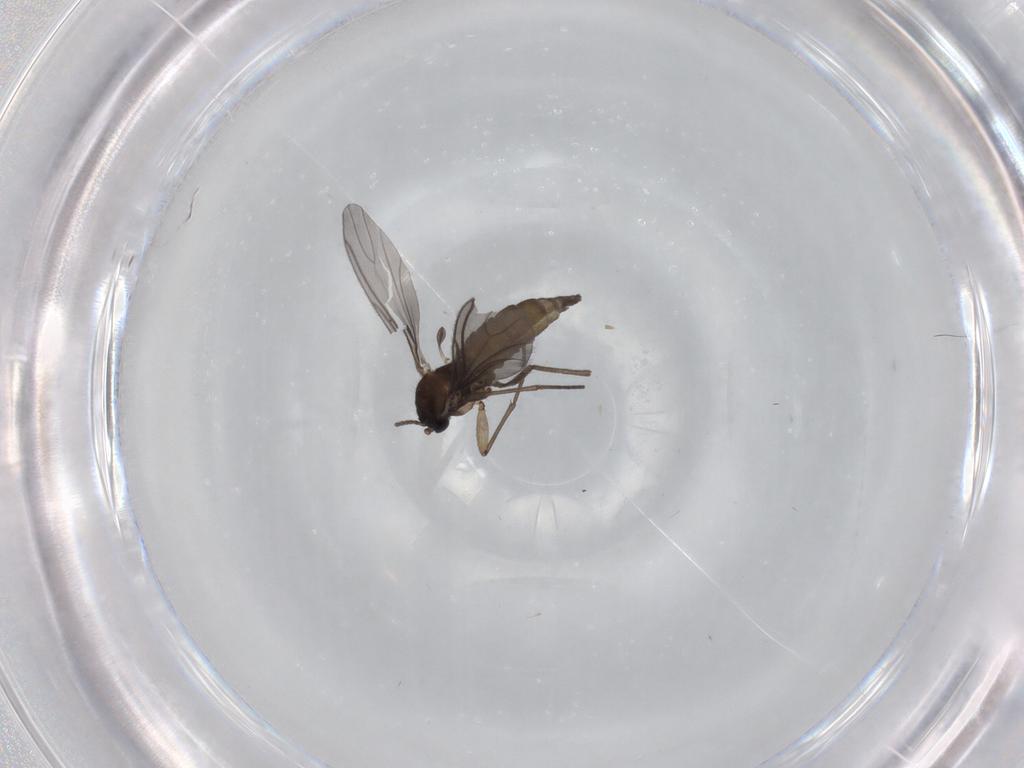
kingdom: Animalia
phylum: Arthropoda
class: Insecta
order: Diptera
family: Sciaridae
